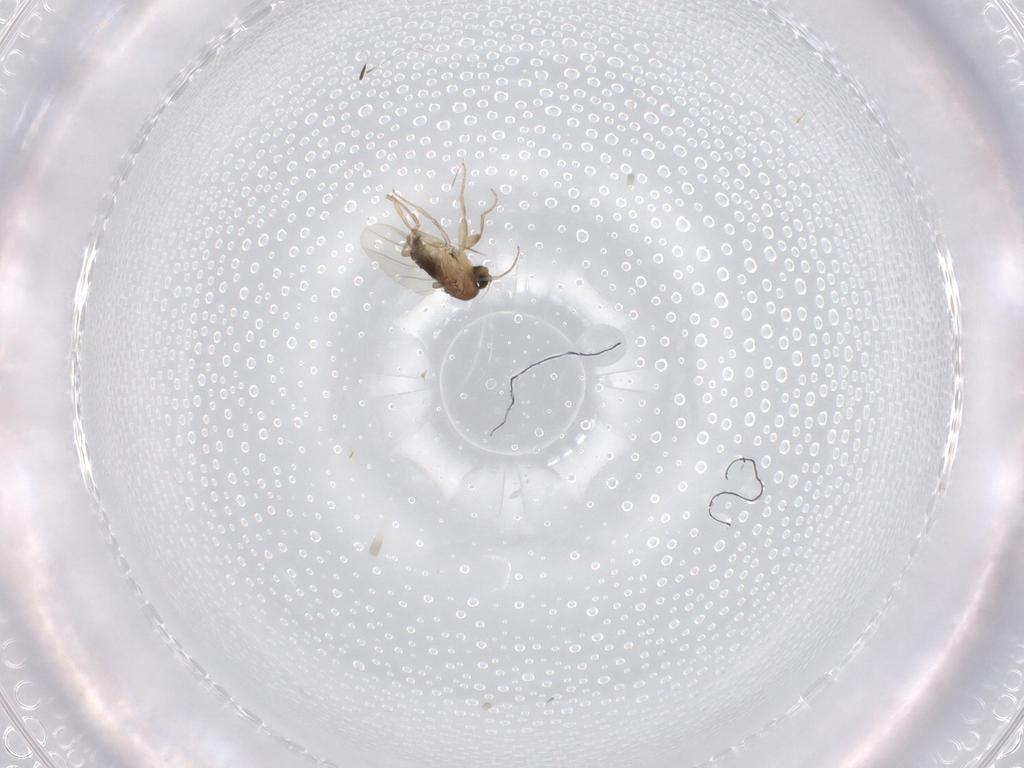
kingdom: Animalia
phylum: Arthropoda
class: Insecta
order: Diptera
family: Phoridae
